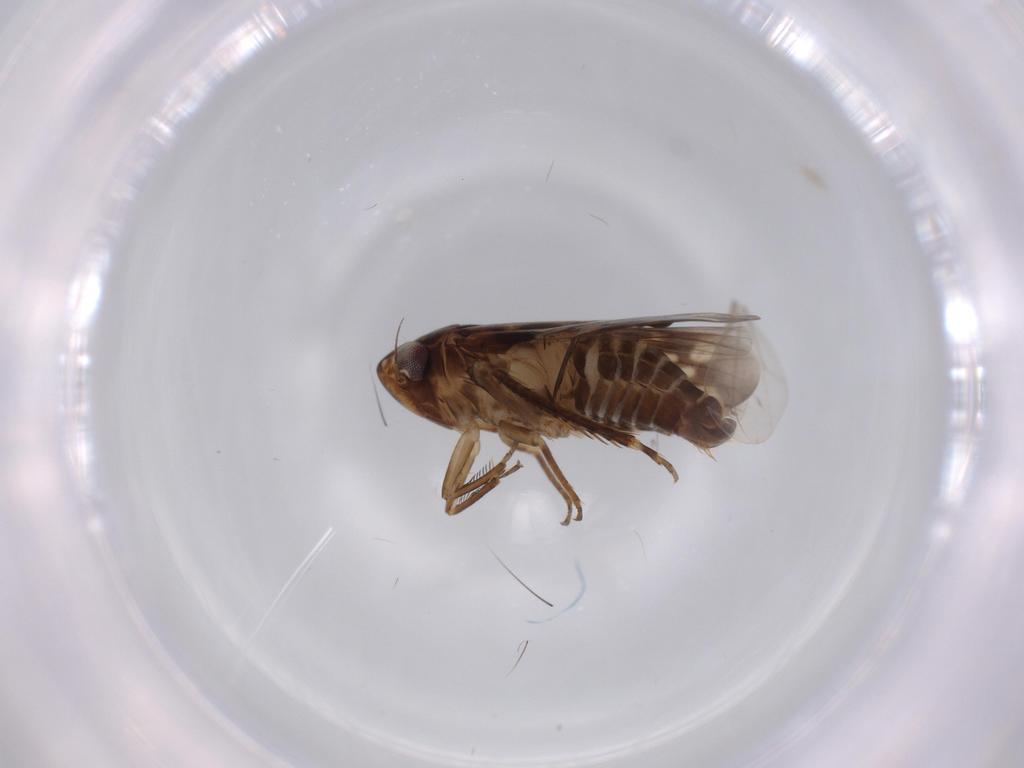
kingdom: Animalia
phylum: Arthropoda
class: Insecta
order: Hemiptera
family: Cicadellidae
